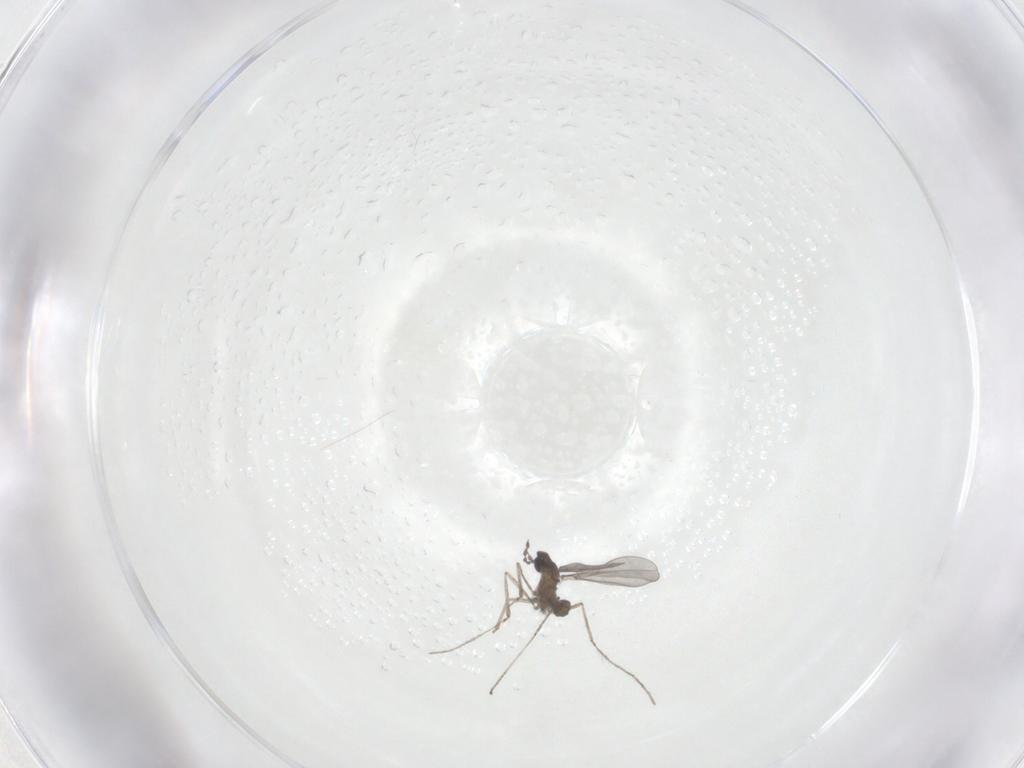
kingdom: Animalia
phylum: Arthropoda
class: Insecta
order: Diptera
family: Cecidomyiidae
